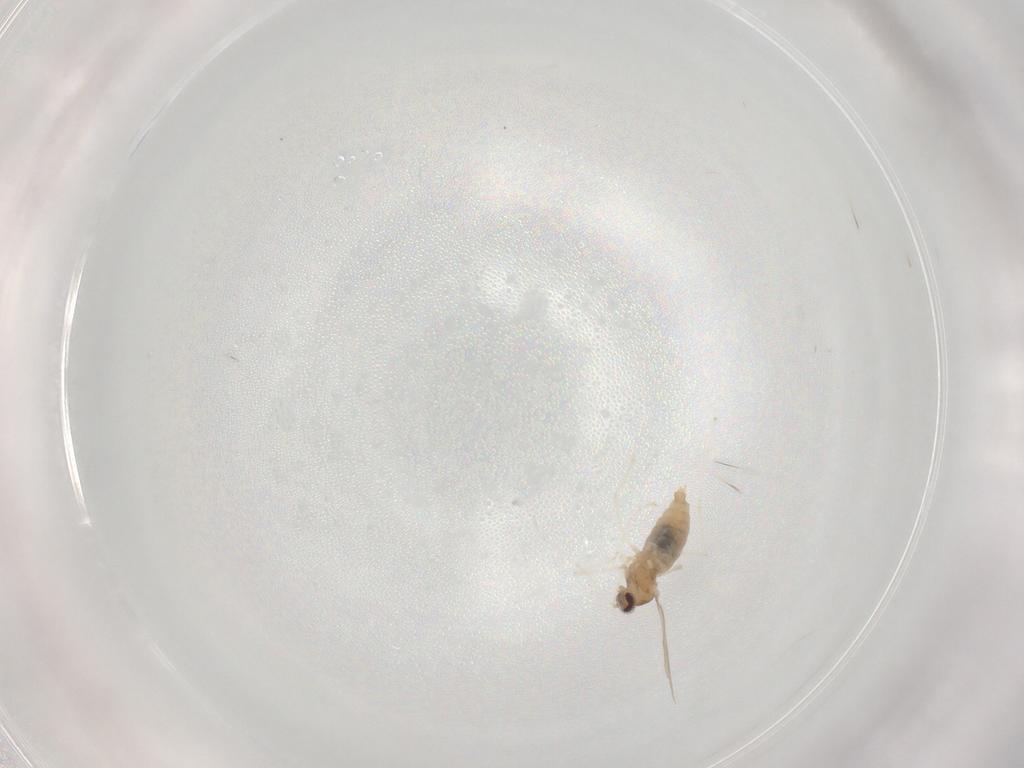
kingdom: Animalia
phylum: Arthropoda
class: Insecta
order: Diptera
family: Cecidomyiidae
